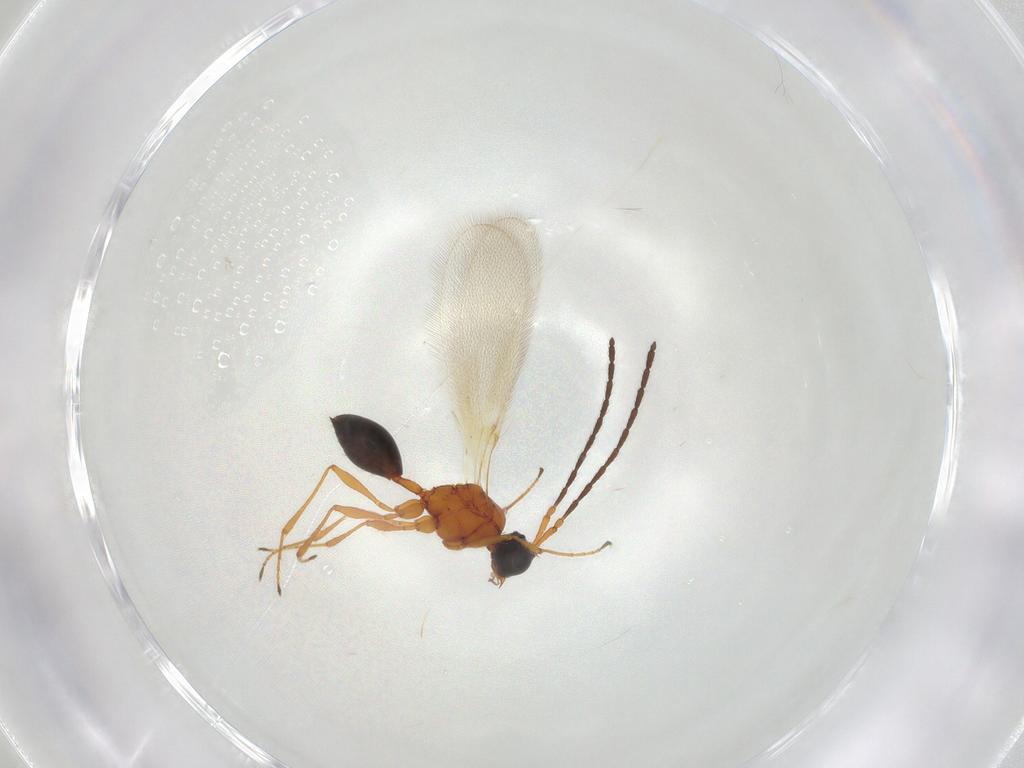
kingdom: Animalia
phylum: Arthropoda
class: Insecta
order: Hymenoptera
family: Diapriidae
